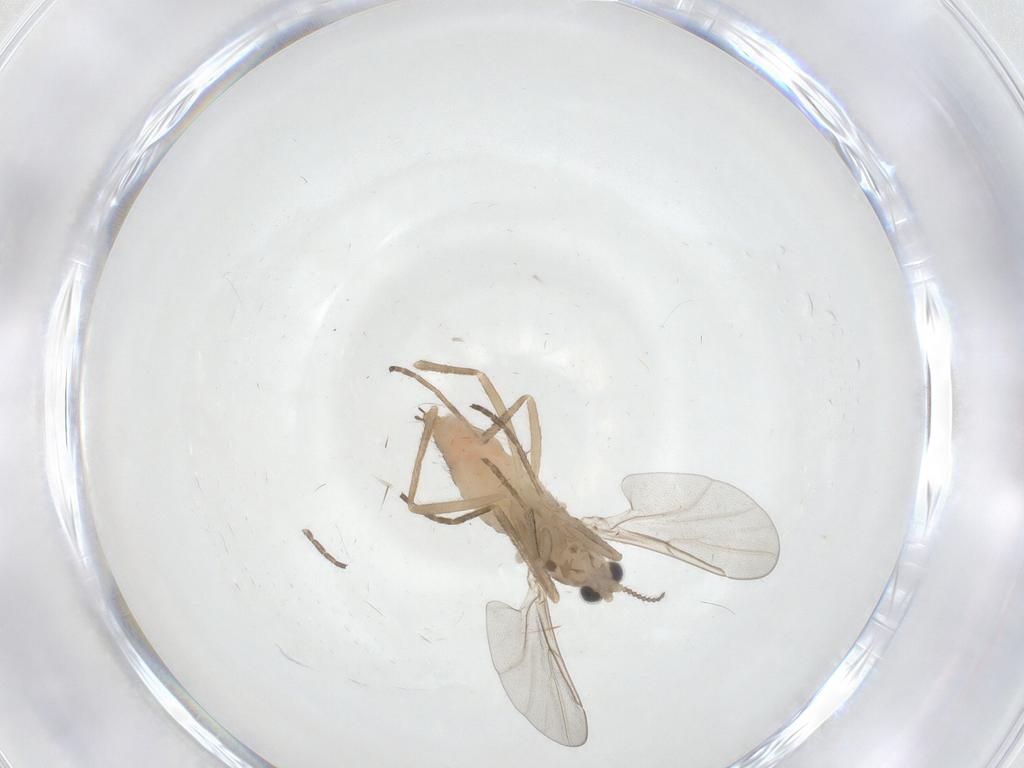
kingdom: Animalia
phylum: Arthropoda
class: Insecta
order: Diptera
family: Cecidomyiidae
